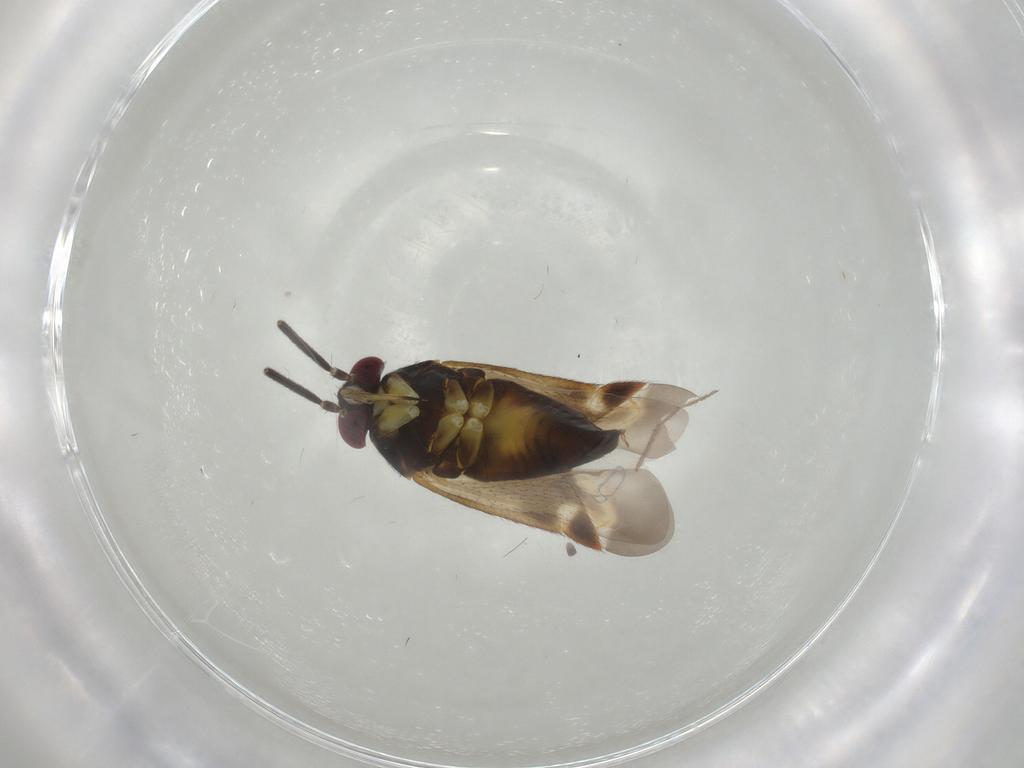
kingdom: Animalia
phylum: Arthropoda
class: Insecta
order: Hemiptera
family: Miridae
